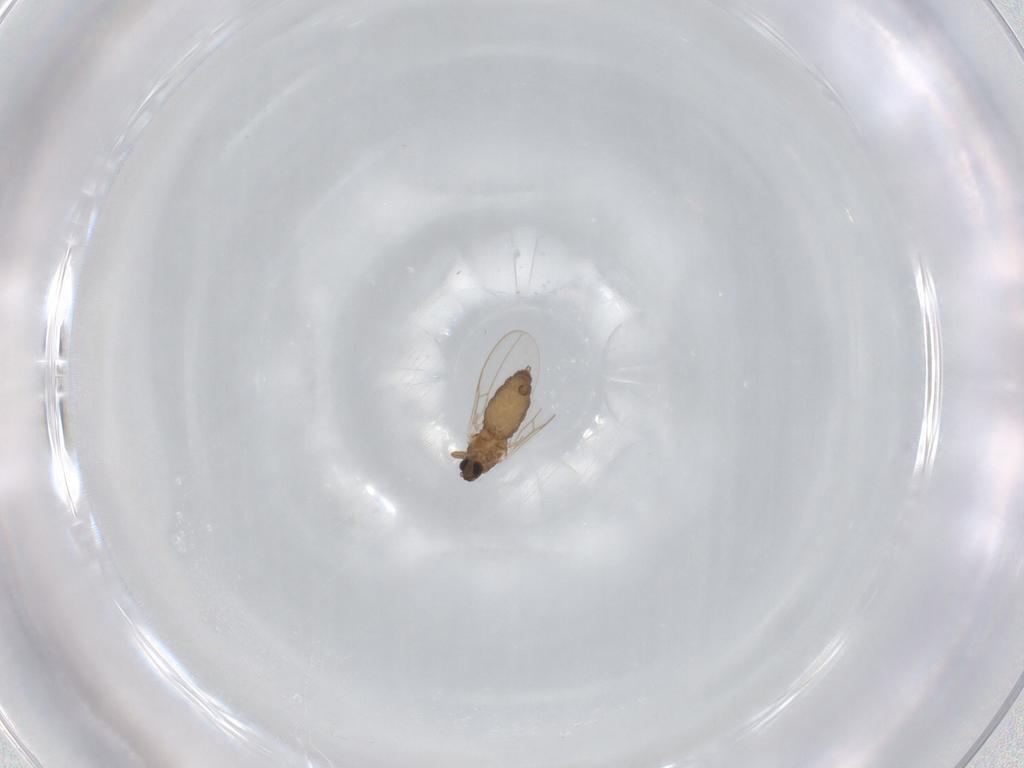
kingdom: Animalia
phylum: Arthropoda
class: Insecta
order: Diptera
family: Cecidomyiidae
